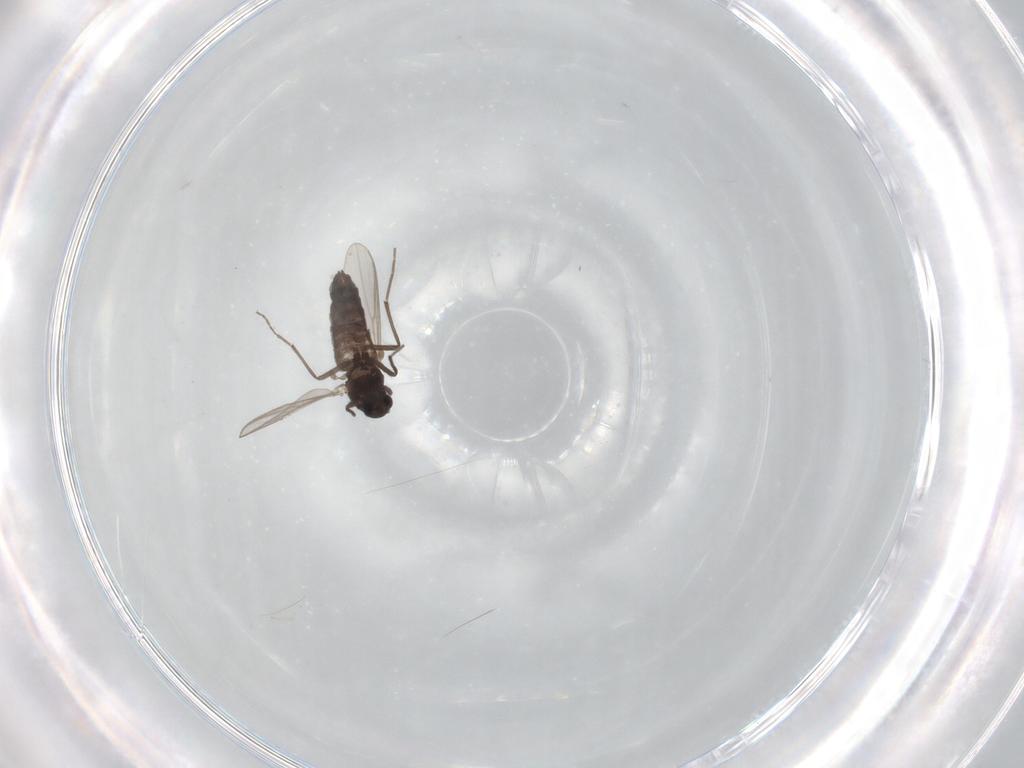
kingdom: Animalia
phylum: Arthropoda
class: Insecta
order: Diptera
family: Chironomidae
